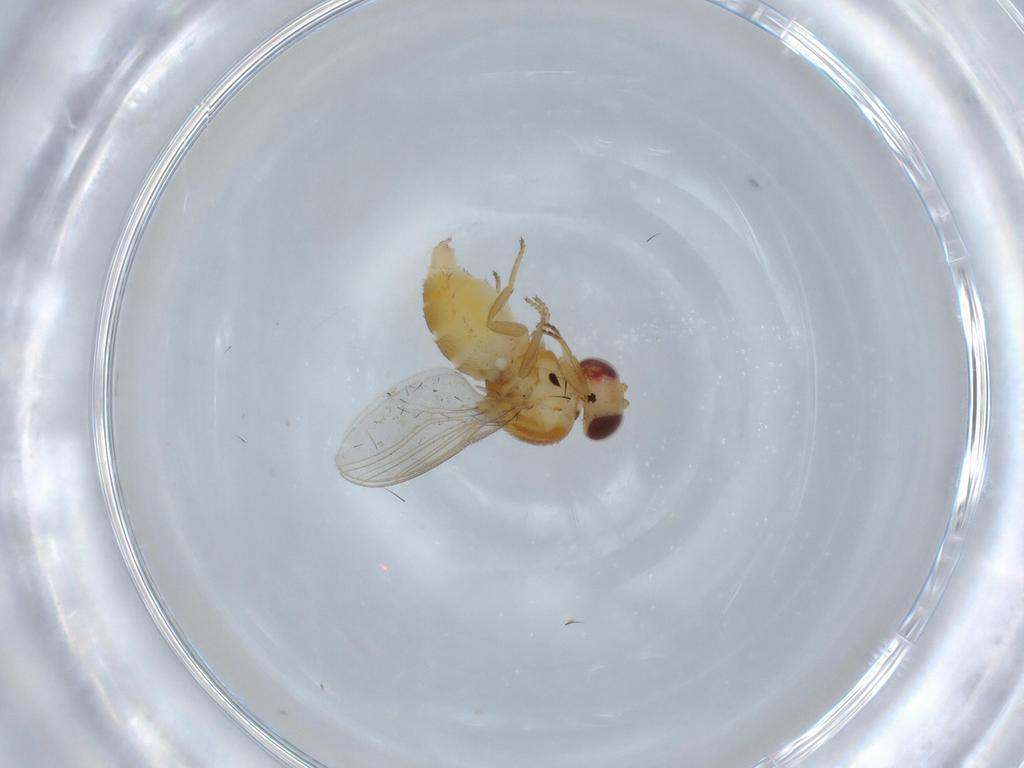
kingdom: Animalia
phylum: Arthropoda
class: Insecta
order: Diptera
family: Chloropidae
